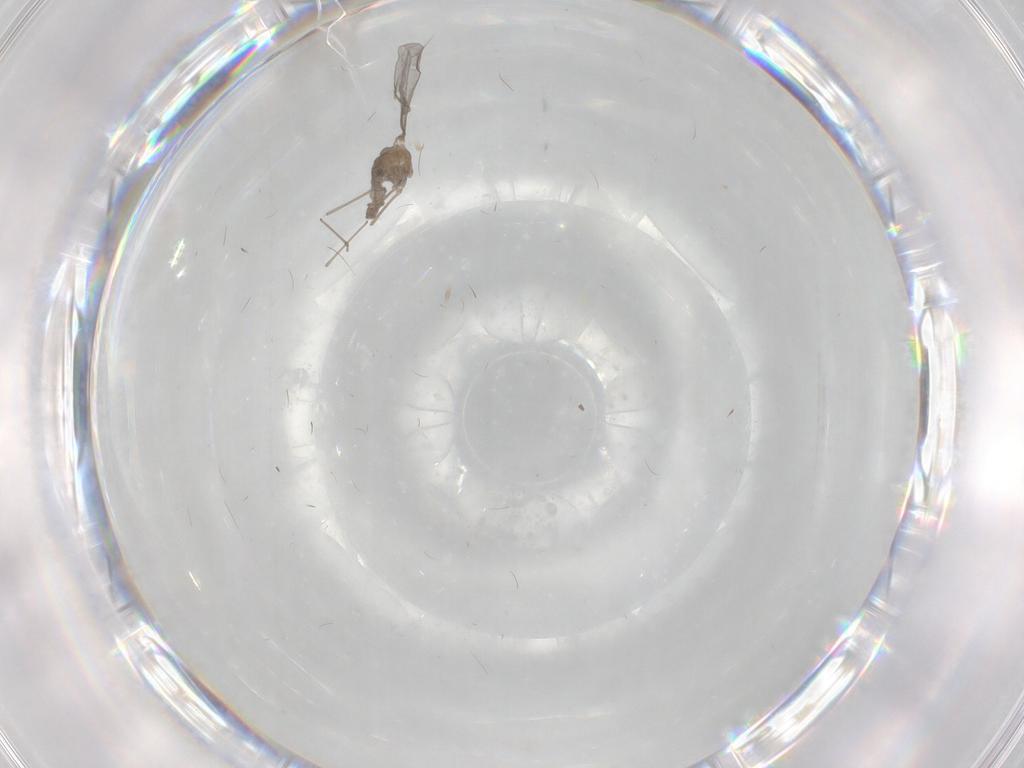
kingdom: Animalia
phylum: Arthropoda
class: Insecta
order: Diptera
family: Cecidomyiidae
